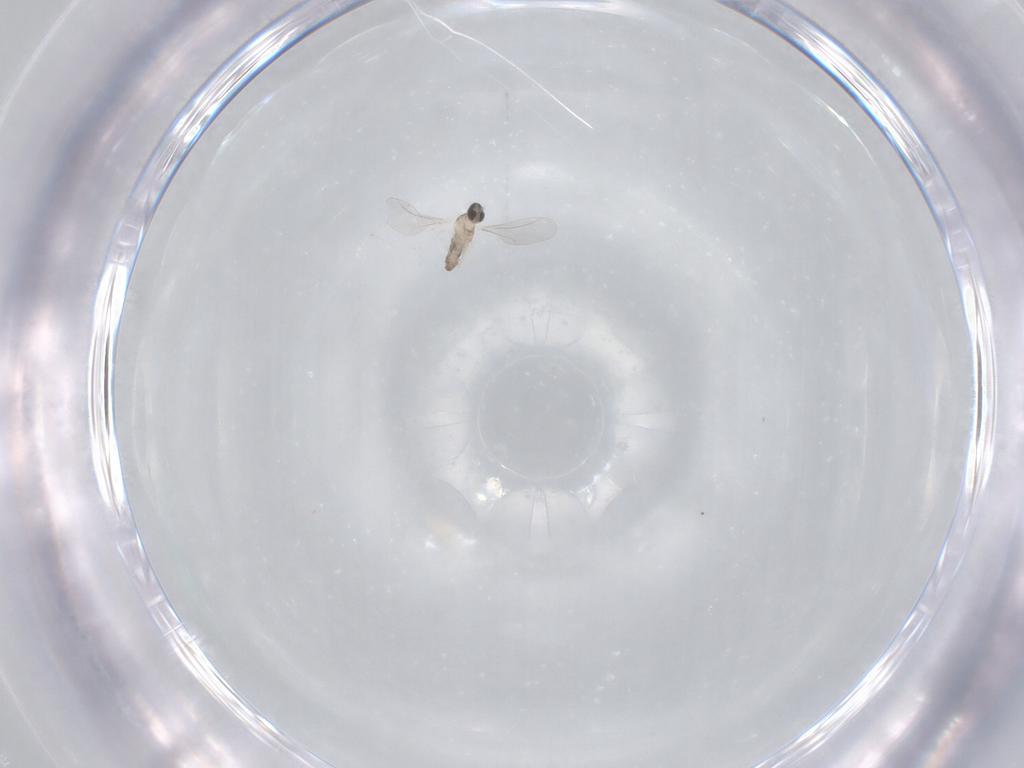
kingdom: Animalia
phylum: Arthropoda
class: Insecta
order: Diptera
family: Cecidomyiidae
